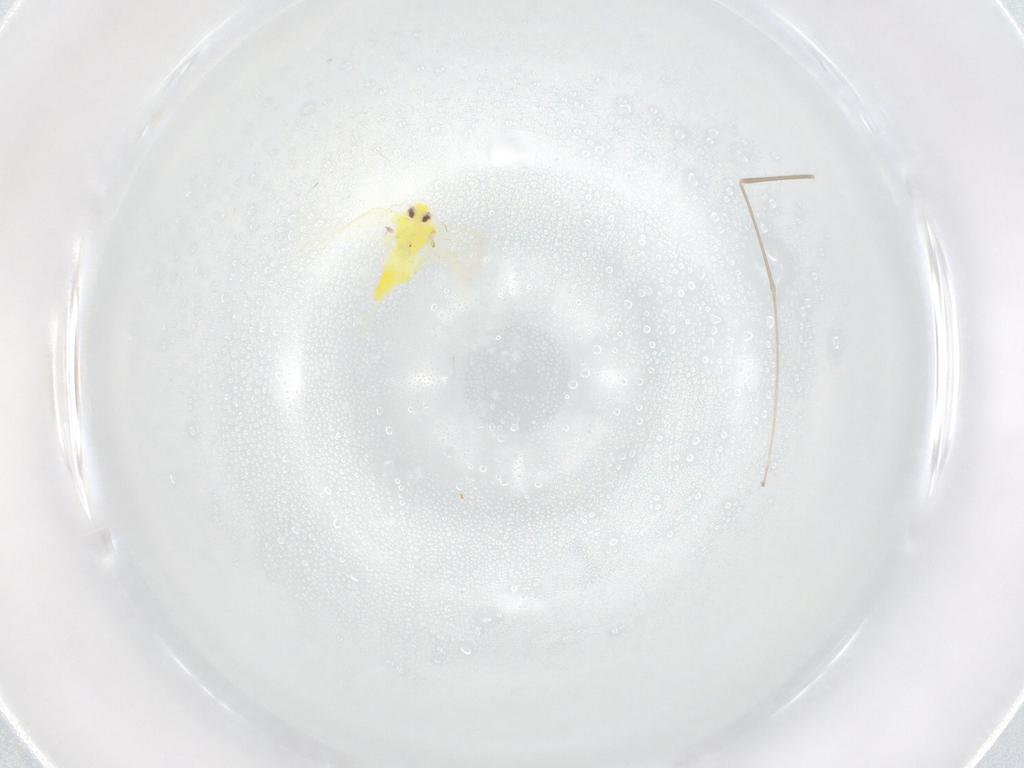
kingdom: Animalia
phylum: Arthropoda
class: Insecta
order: Hemiptera
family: Aleyrodidae
